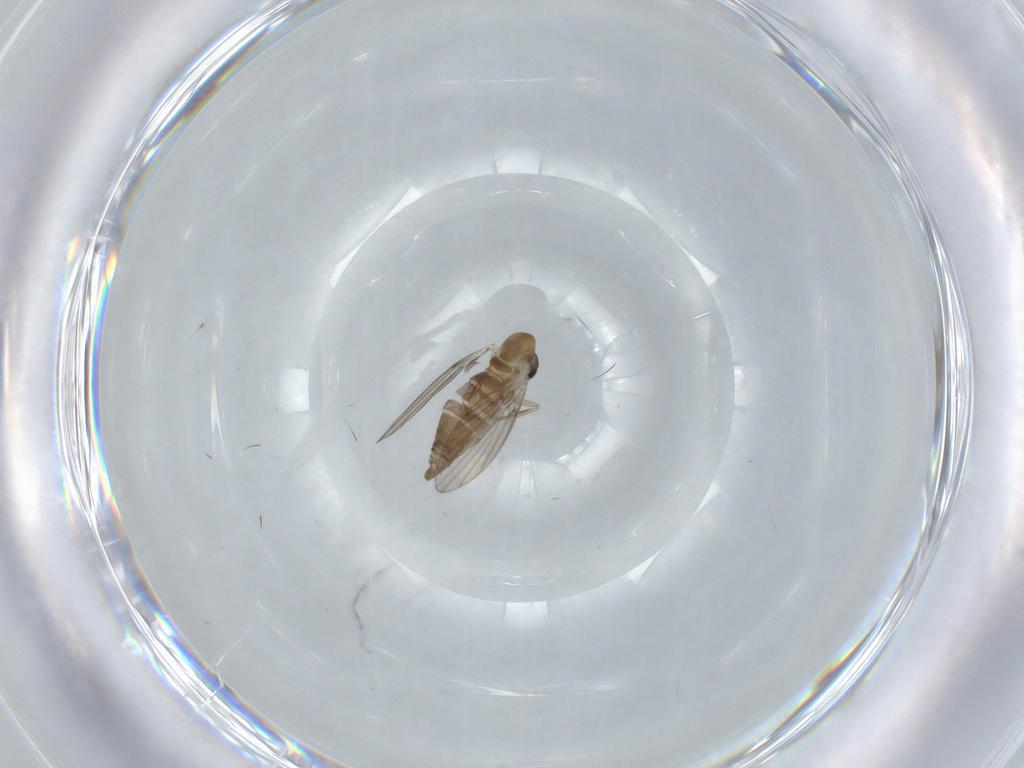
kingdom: Animalia
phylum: Arthropoda
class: Insecta
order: Diptera
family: Psychodidae
